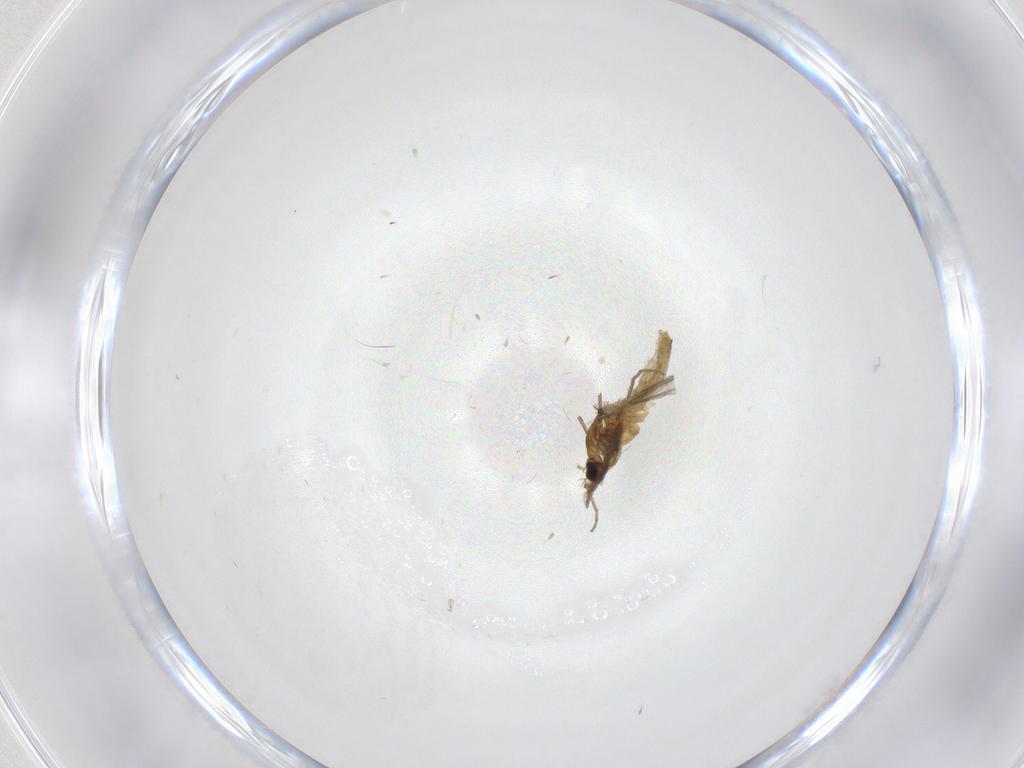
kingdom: Animalia
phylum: Arthropoda
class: Insecta
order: Diptera
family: Chironomidae
